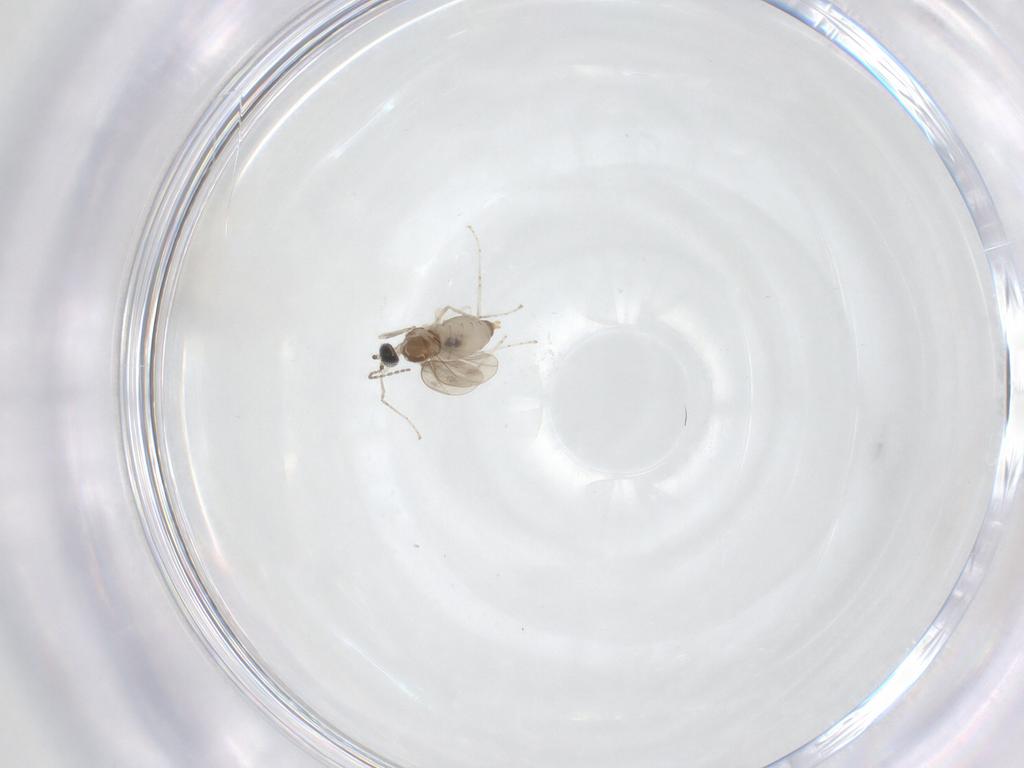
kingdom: Animalia
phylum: Arthropoda
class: Insecta
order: Diptera
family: Cecidomyiidae
